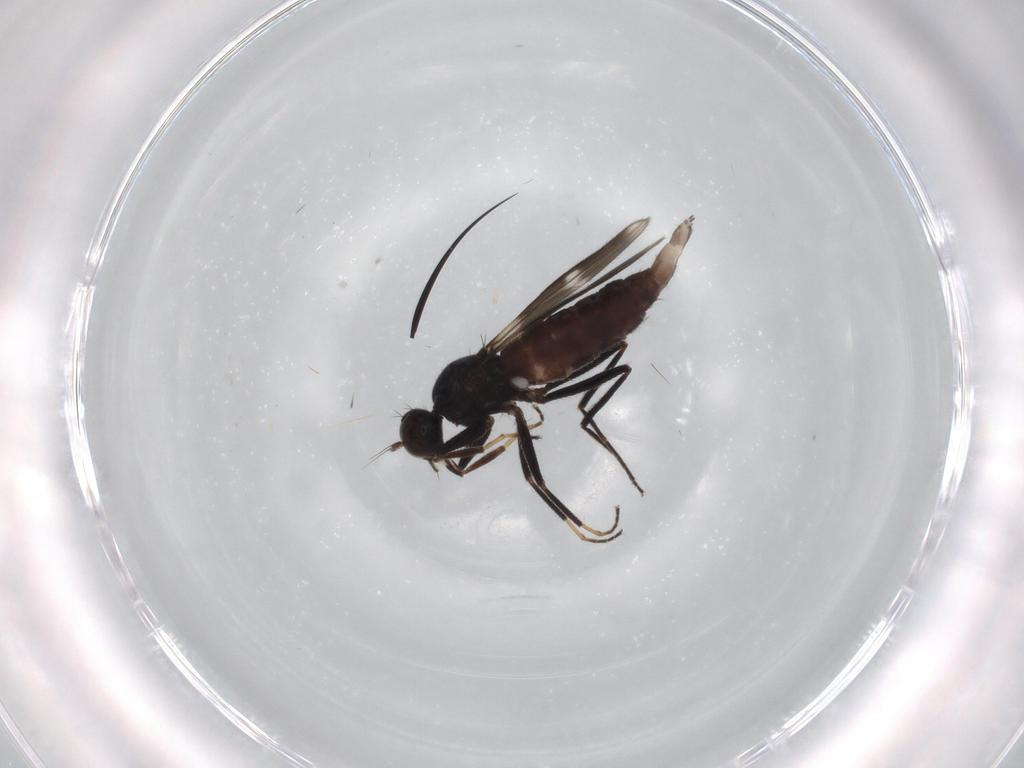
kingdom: Animalia
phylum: Arthropoda
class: Insecta
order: Diptera
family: Hybotidae
